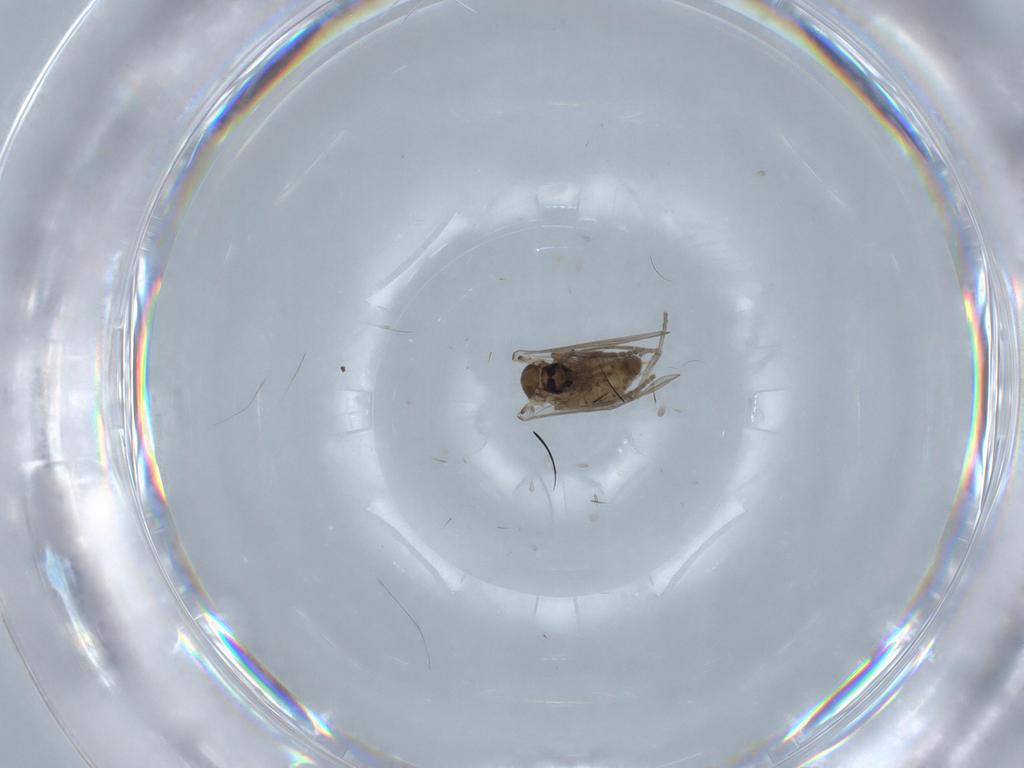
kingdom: Animalia
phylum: Arthropoda
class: Insecta
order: Diptera
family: Psychodidae
